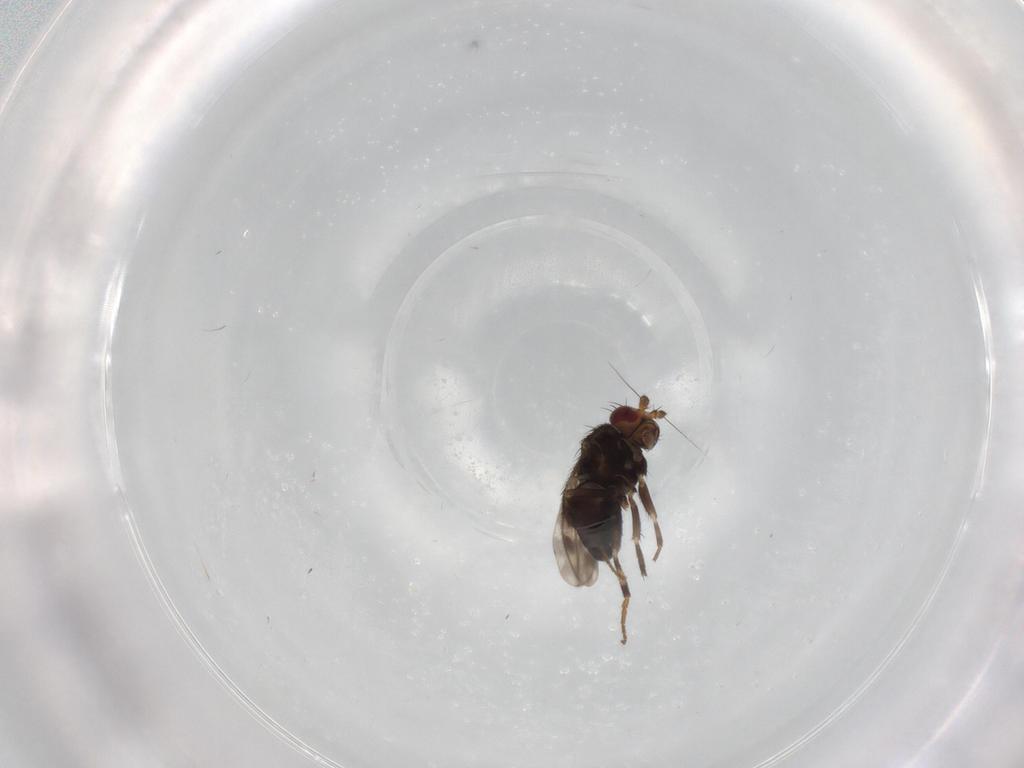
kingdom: Animalia
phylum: Arthropoda
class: Insecta
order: Diptera
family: Sphaeroceridae
